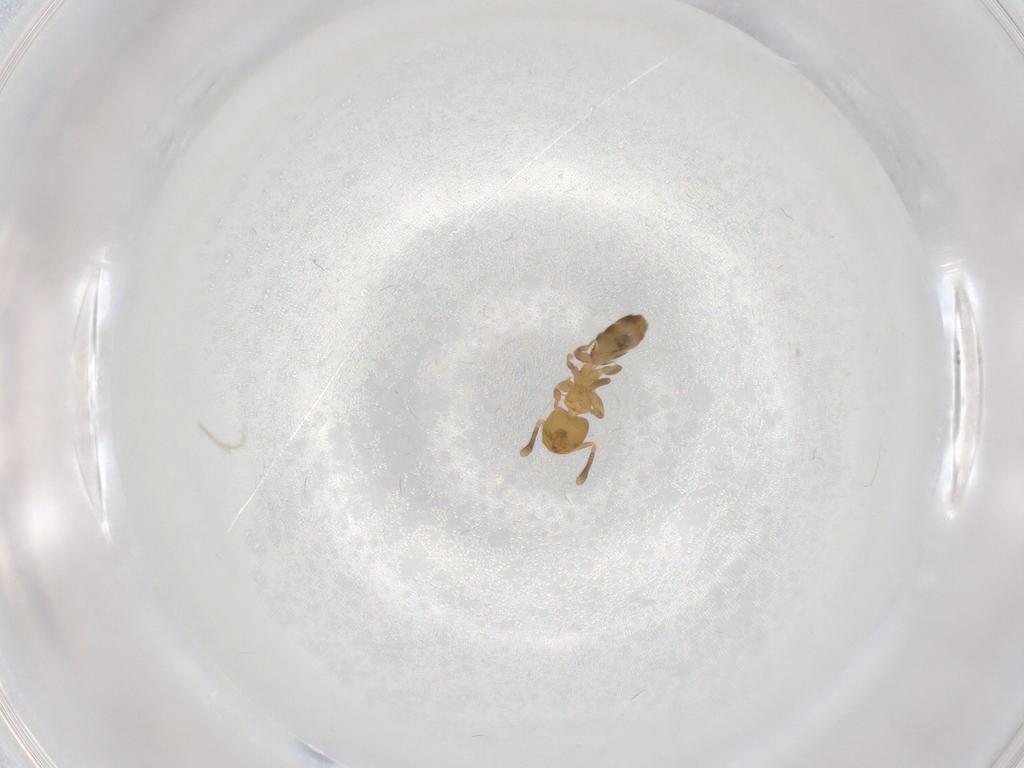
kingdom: Animalia
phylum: Arthropoda
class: Insecta
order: Hymenoptera
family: Formicidae
